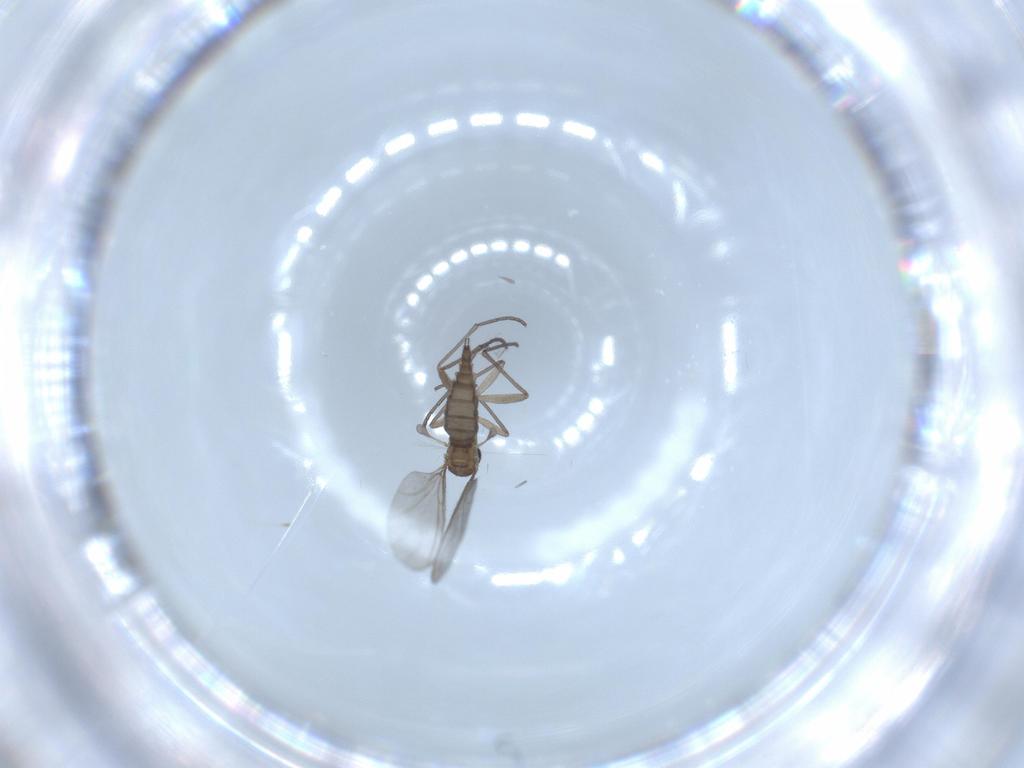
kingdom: Animalia
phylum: Arthropoda
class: Insecta
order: Diptera
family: Sciaridae
